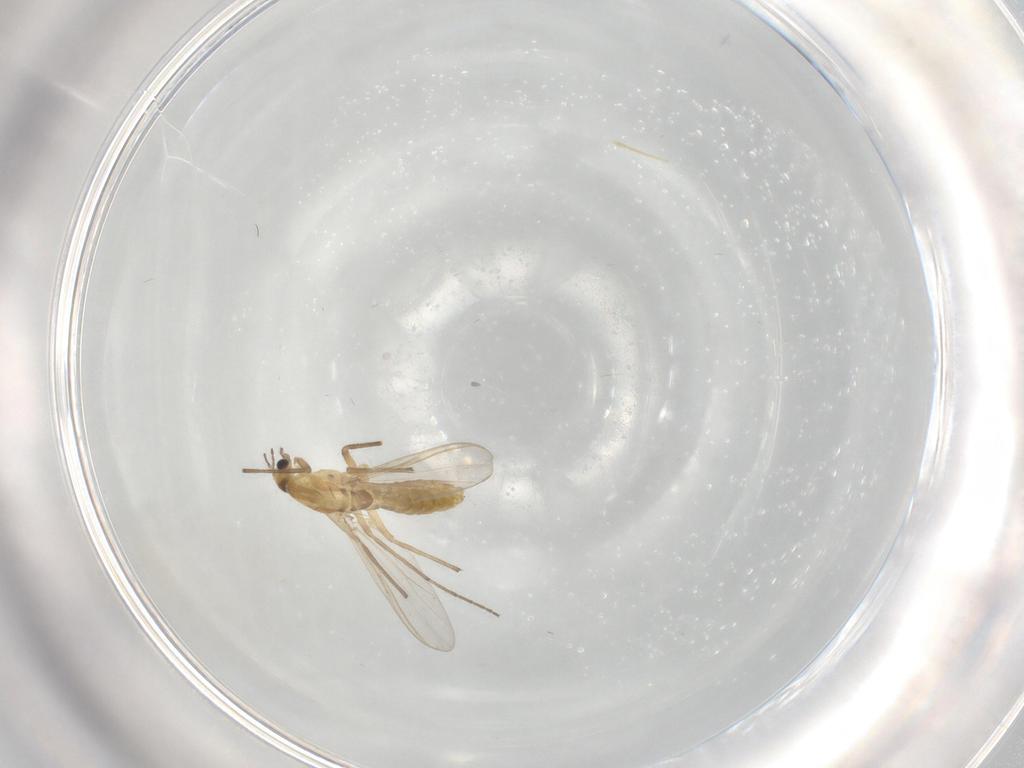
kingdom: Animalia
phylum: Arthropoda
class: Insecta
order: Diptera
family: Chironomidae
